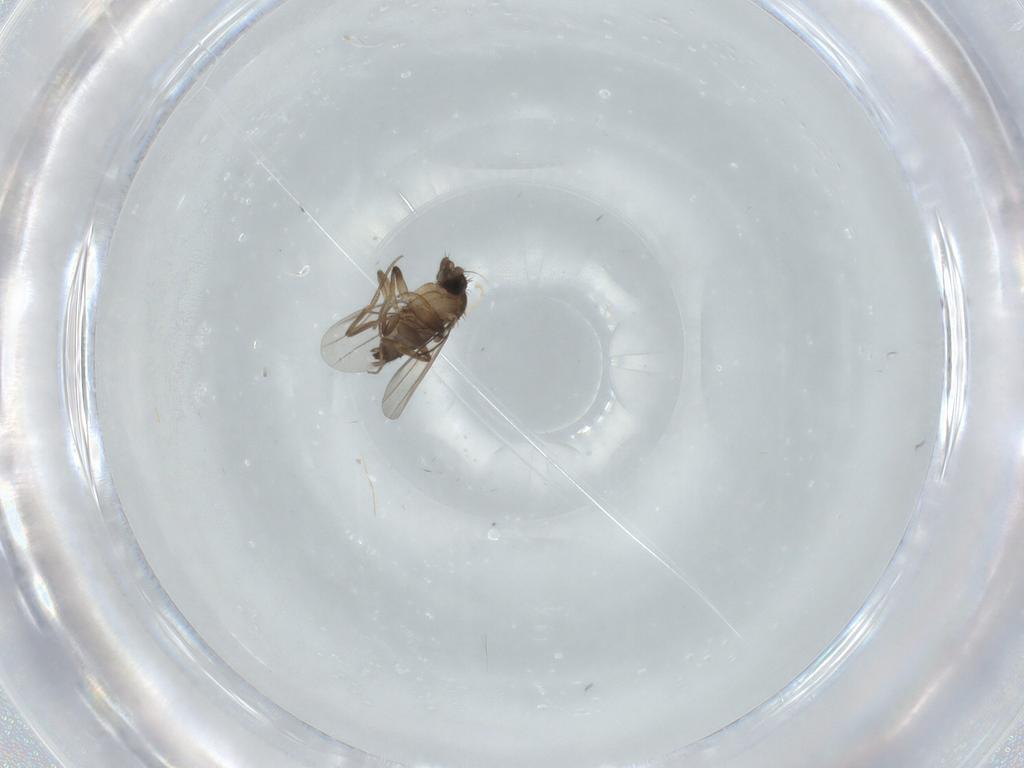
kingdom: Animalia
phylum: Arthropoda
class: Insecta
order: Diptera
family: Phoridae
